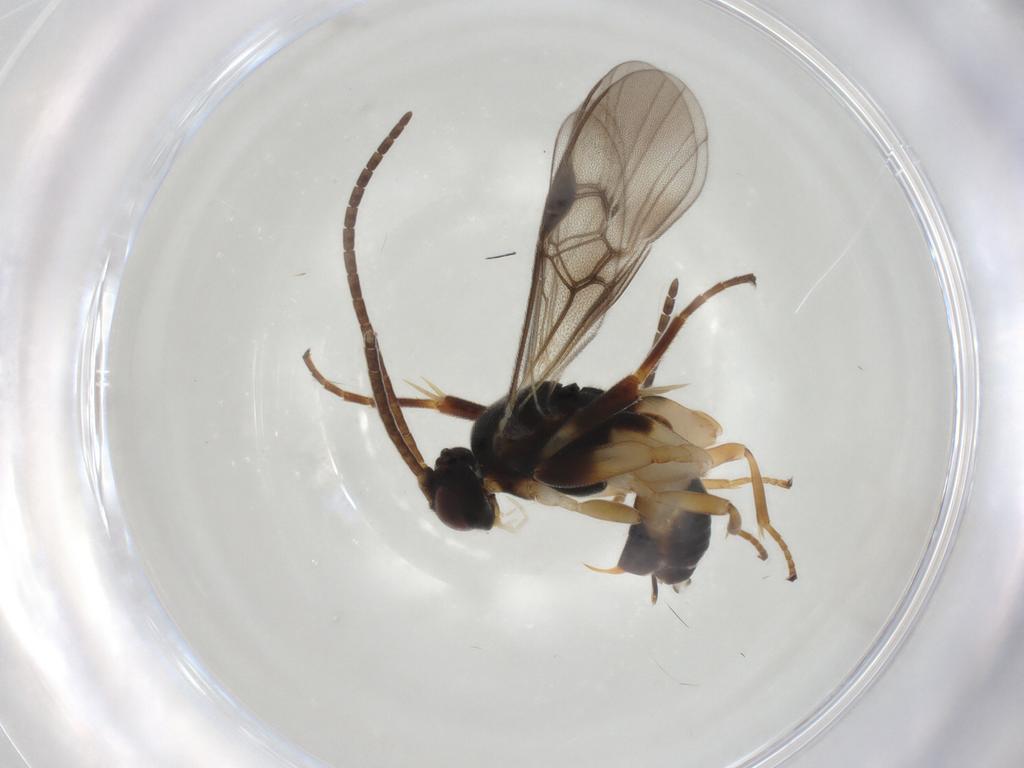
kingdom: Animalia
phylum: Arthropoda
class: Insecta
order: Hymenoptera
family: Braconidae
